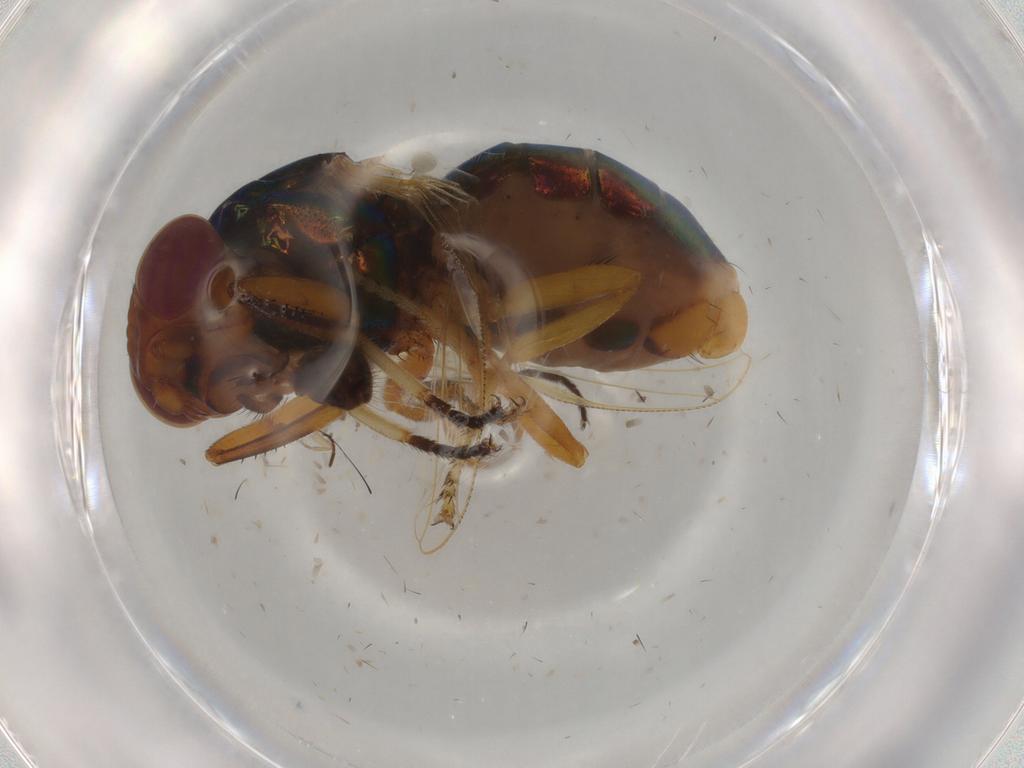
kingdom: Animalia
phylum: Arthropoda
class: Insecta
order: Diptera
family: Ulidiidae
